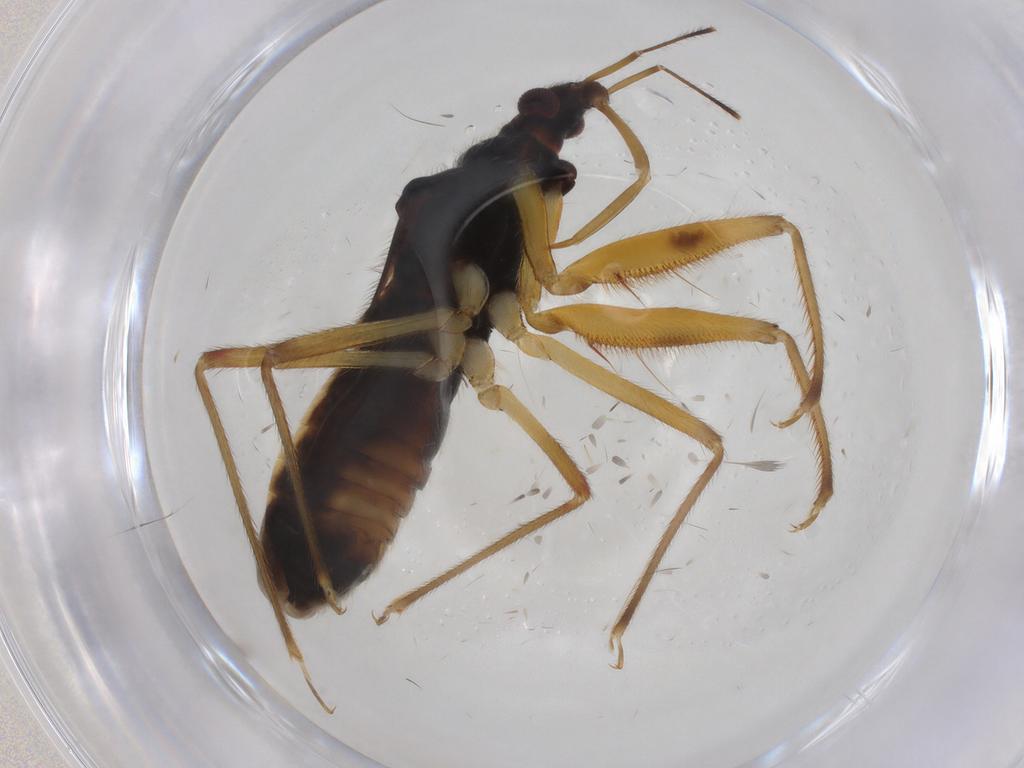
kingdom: Animalia
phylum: Arthropoda
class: Insecta
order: Hemiptera
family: Nabidae
